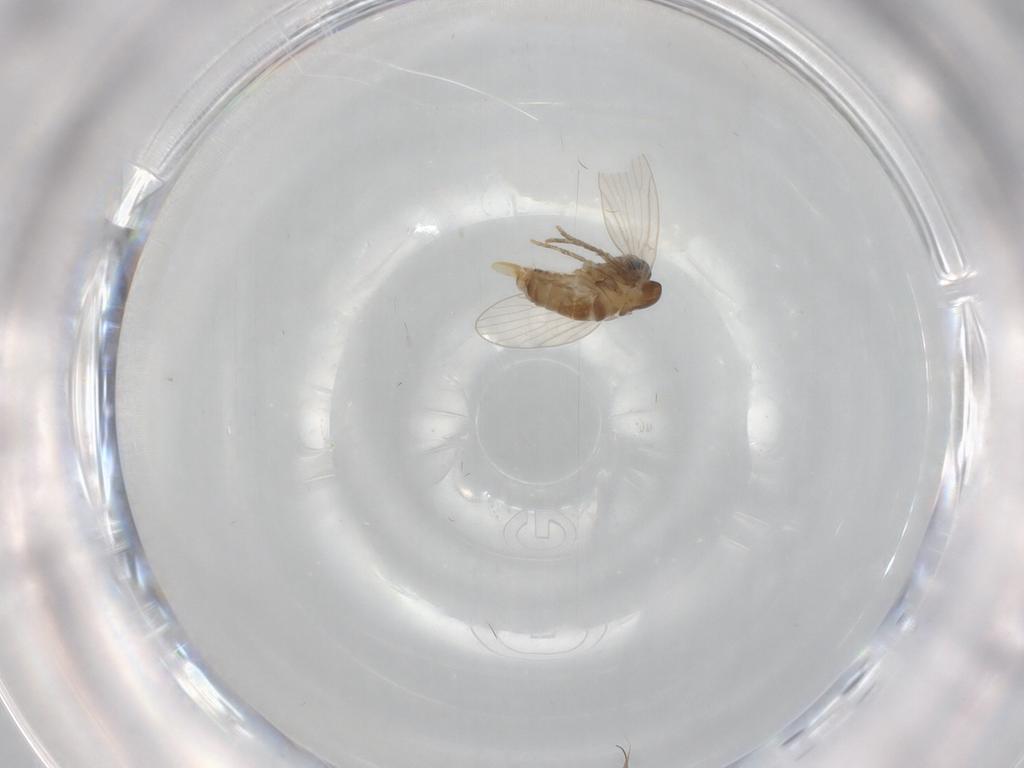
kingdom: Animalia
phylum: Arthropoda
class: Insecta
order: Diptera
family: Psychodidae
